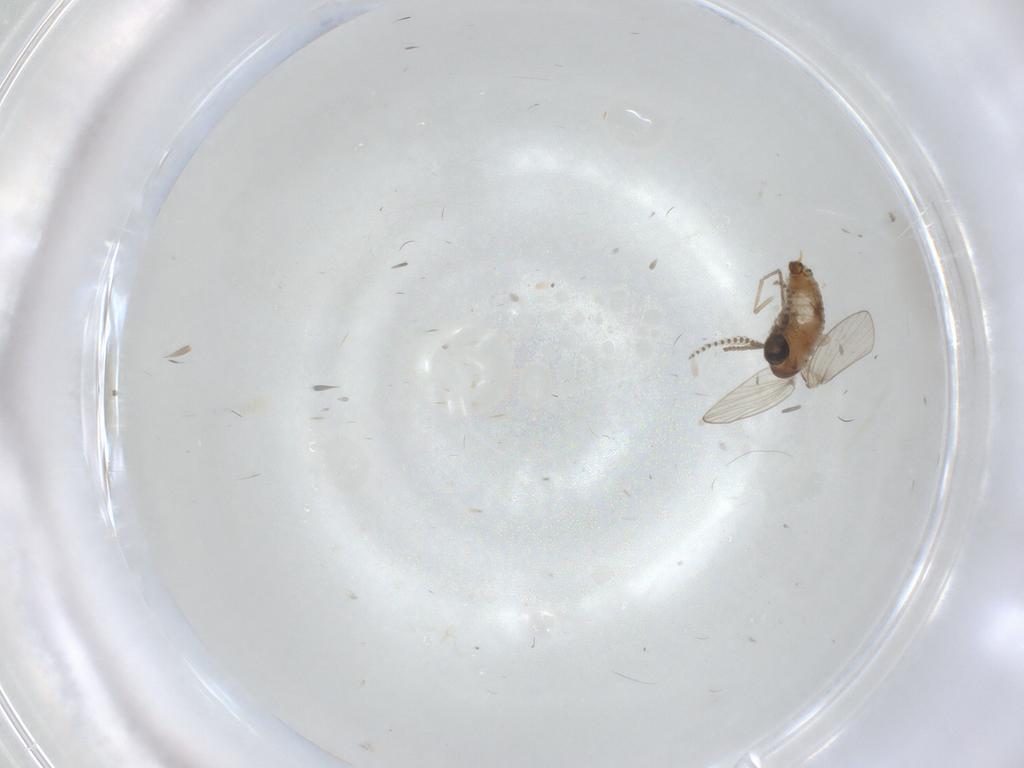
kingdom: Animalia
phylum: Arthropoda
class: Insecta
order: Diptera
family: Psychodidae
